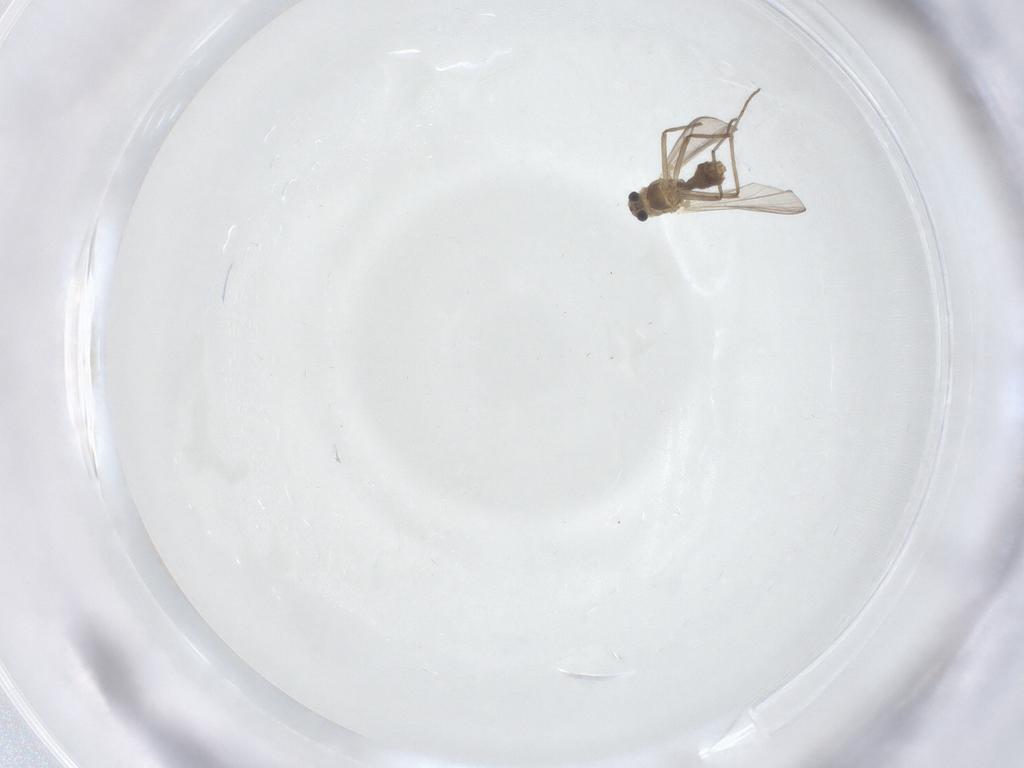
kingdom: Animalia
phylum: Arthropoda
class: Insecta
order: Diptera
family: Chironomidae
